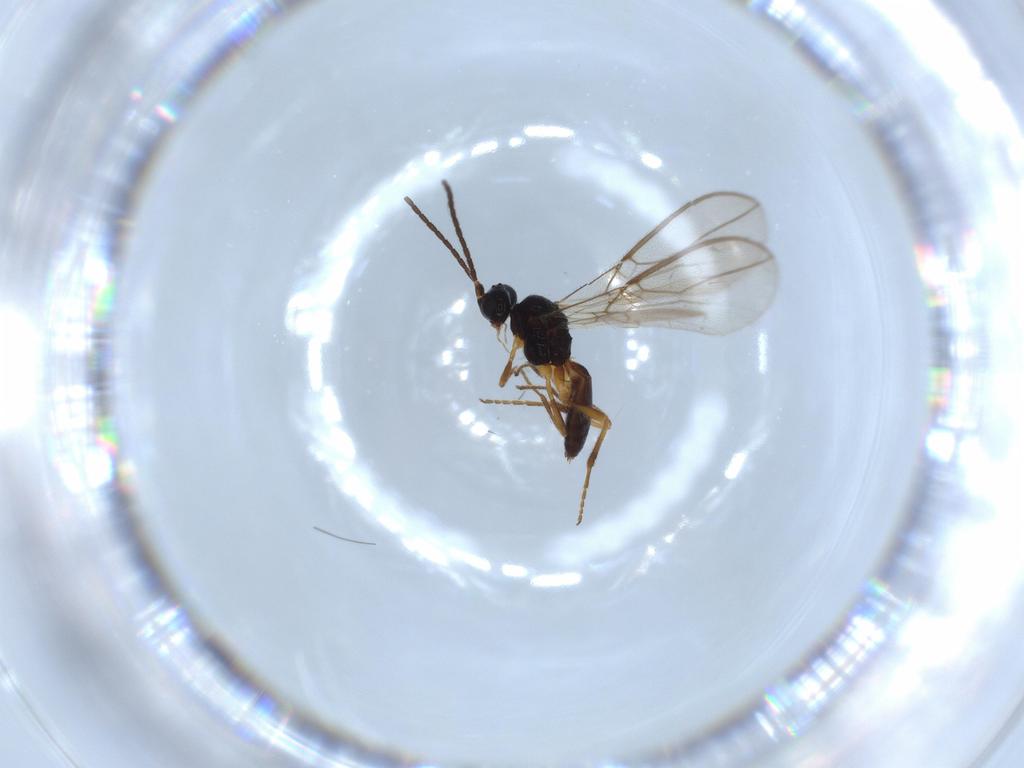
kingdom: Animalia
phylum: Arthropoda
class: Insecta
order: Hymenoptera
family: Braconidae
